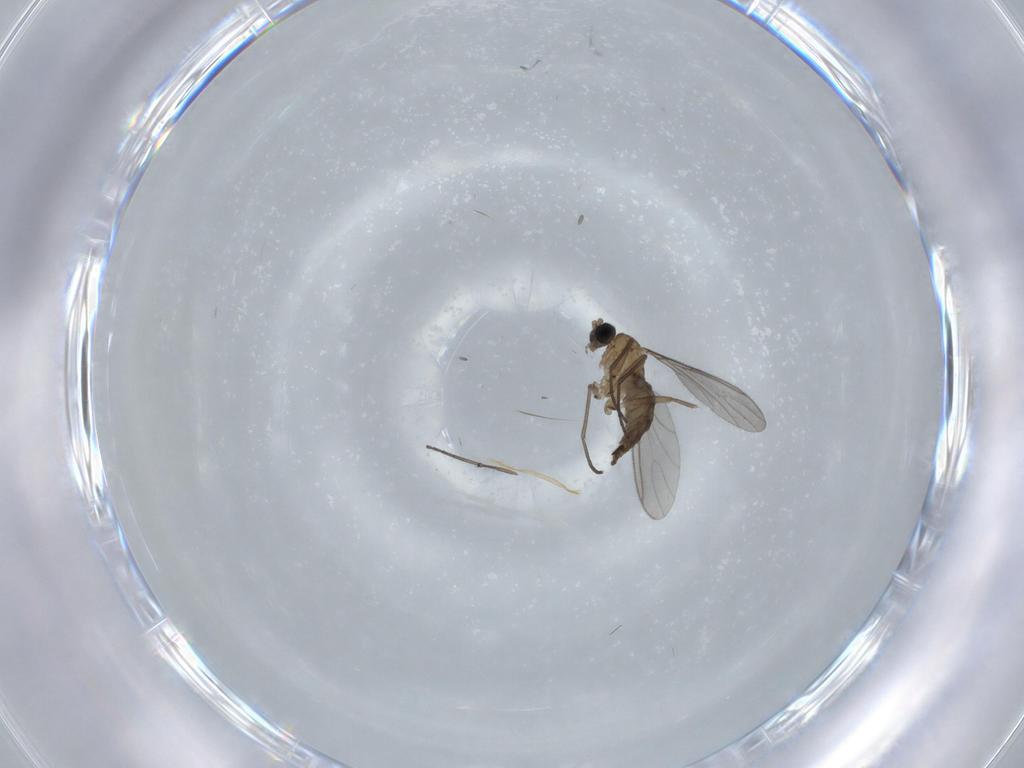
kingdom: Animalia
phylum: Arthropoda
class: Insecta
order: Diptera
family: Sciaridae
